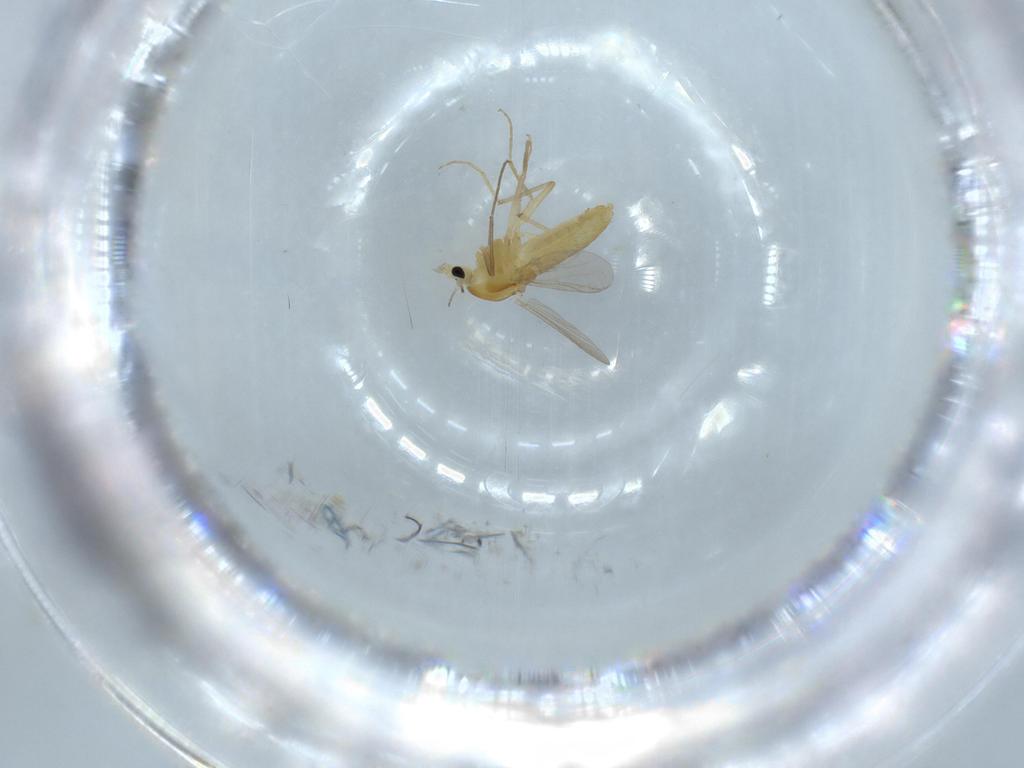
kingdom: Animalia
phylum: Arthropoda
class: Insecta
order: Diptera
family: Chironomidae
